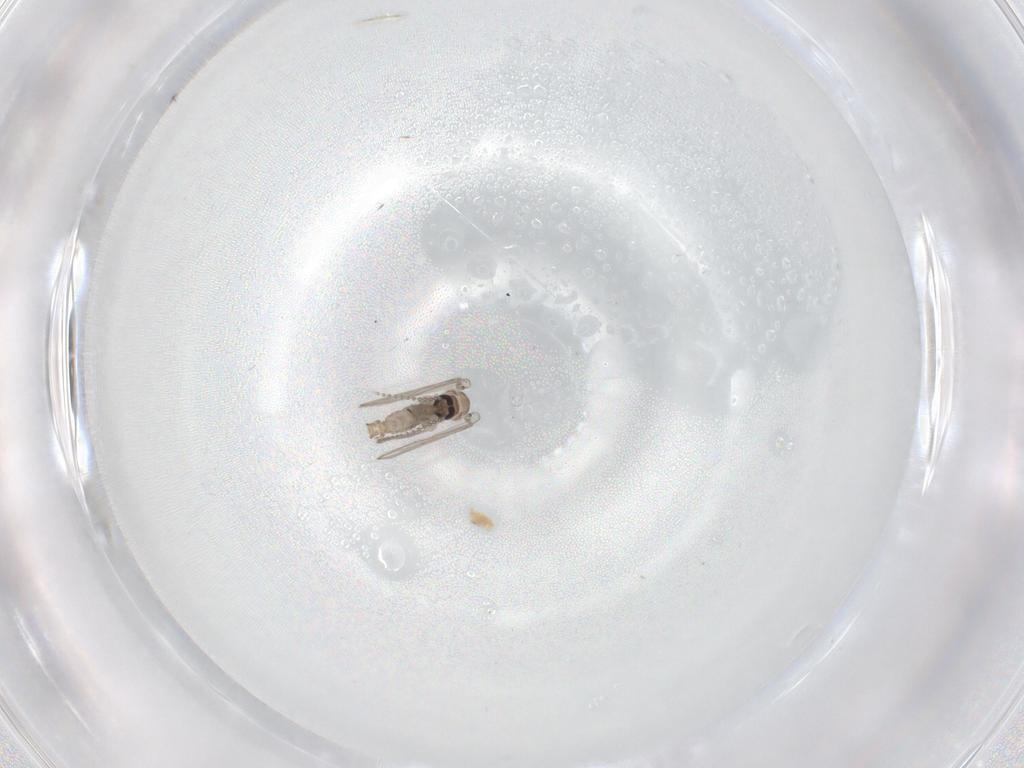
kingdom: Animalia
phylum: Arthropoda
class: Insecta
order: Diptera
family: Psychodidae
